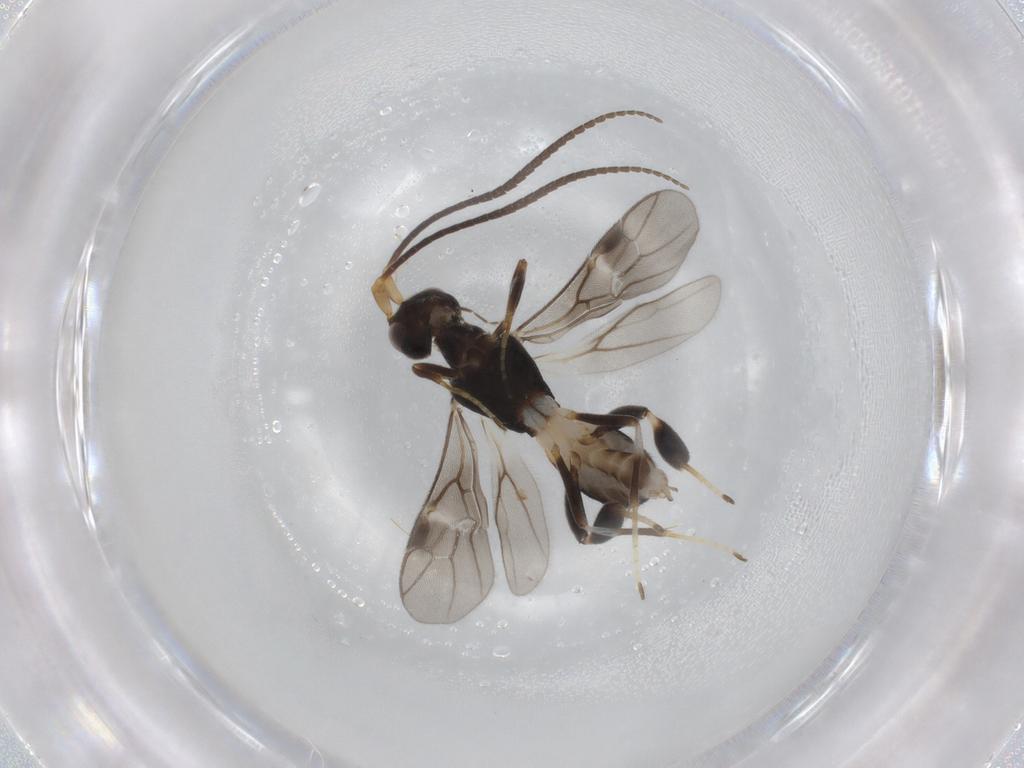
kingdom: Animalia
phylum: Arthropoda
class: Insecta
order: Hymenoptera
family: Braconidae
